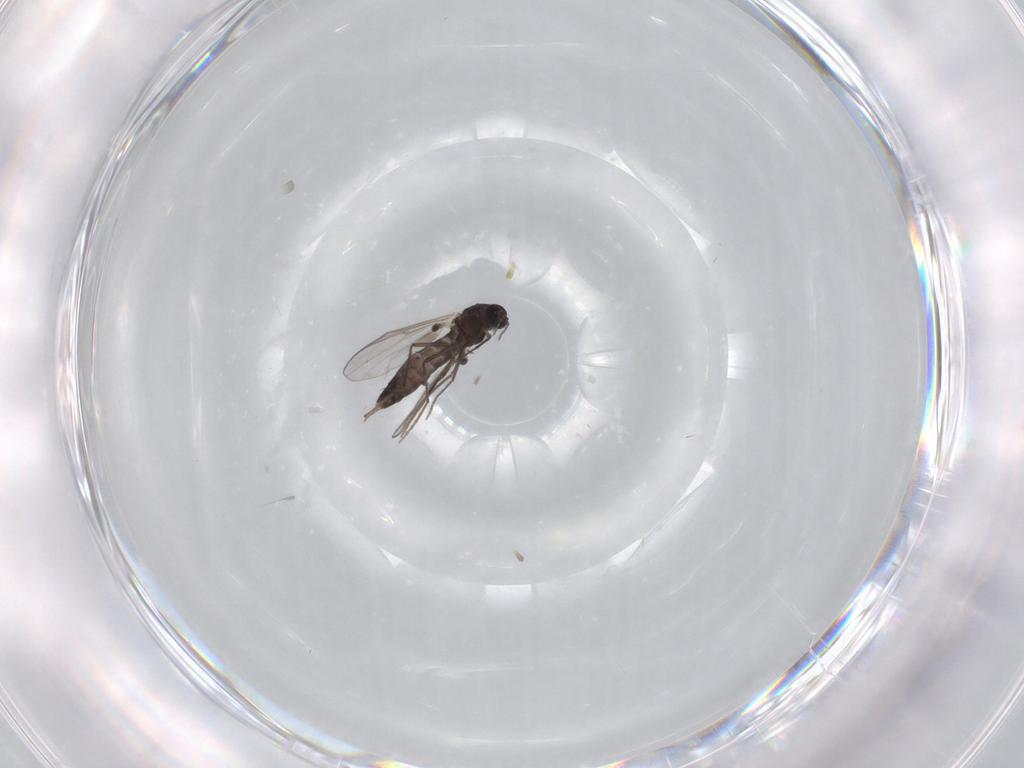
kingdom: Animalia
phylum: Arthropoda
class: Insecta
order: Diptera
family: Chironomidae
